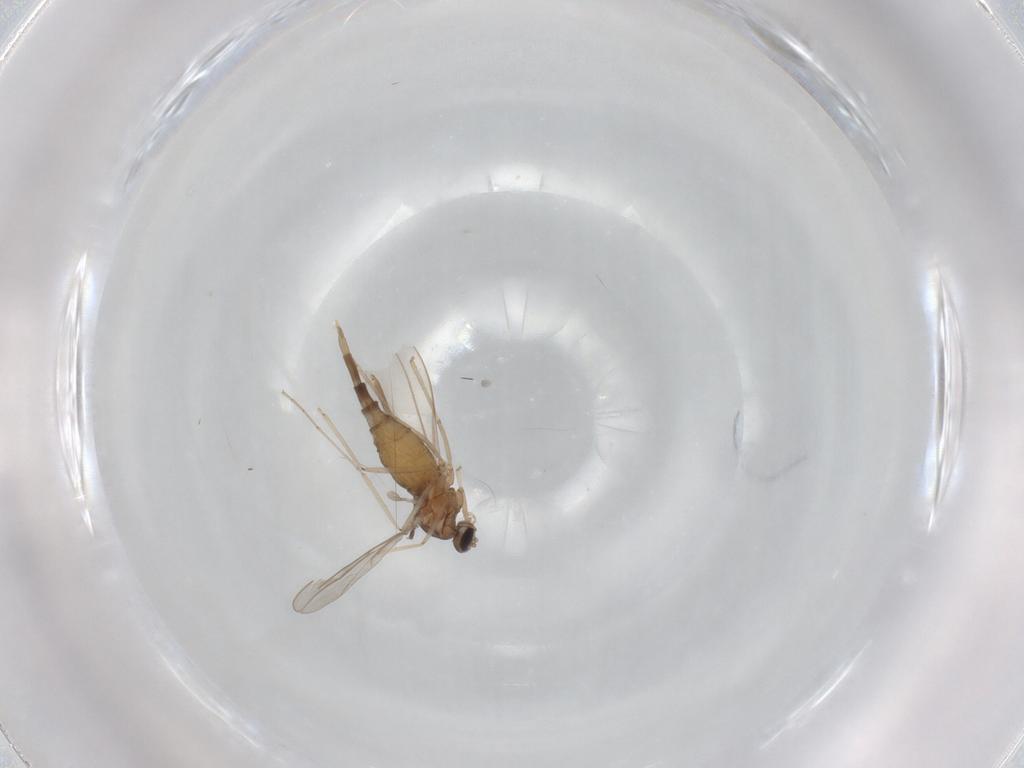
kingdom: Animalia
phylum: Arthropoda
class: Insecta
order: Diptera
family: Cecidomyiidae
